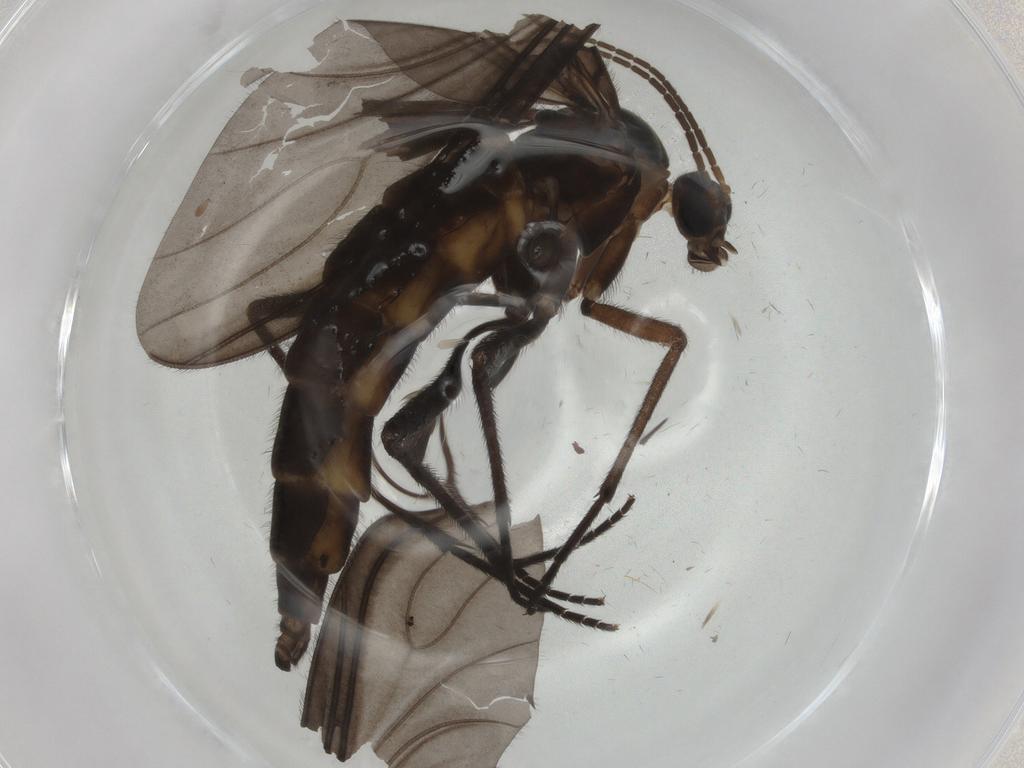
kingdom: Animalia
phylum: Arthropoda
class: Insecta
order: Diptera
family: Sciaridae
